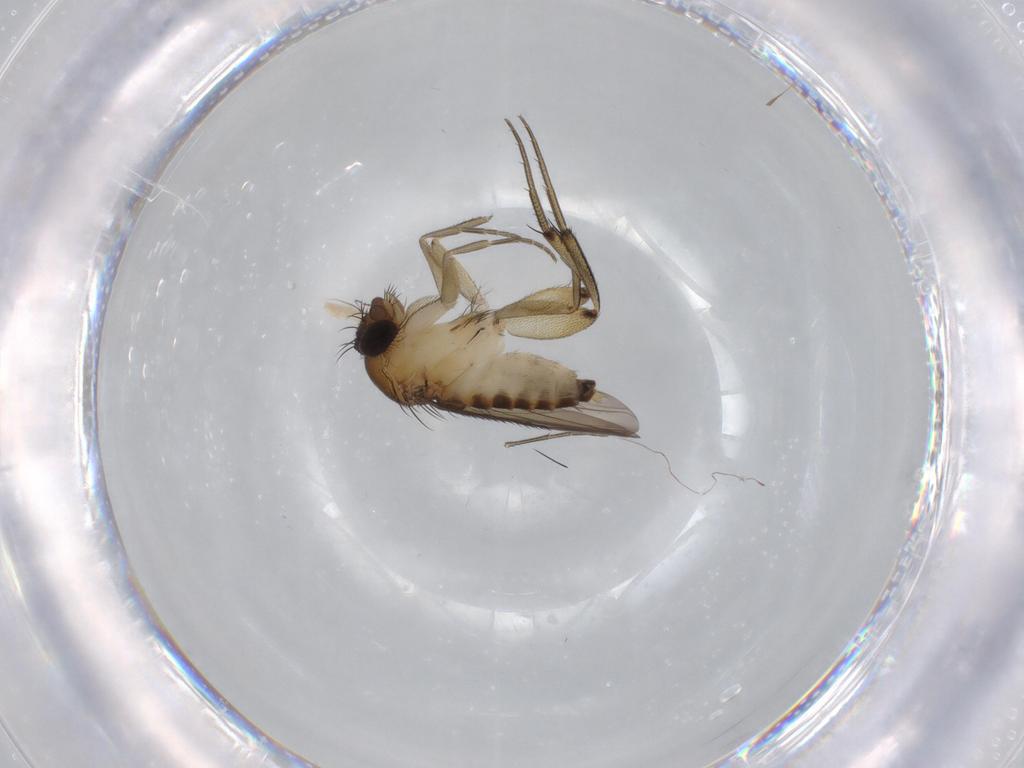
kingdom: Animalia
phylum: Arthropoda
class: Insecta
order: Diptera
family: Phoridae
